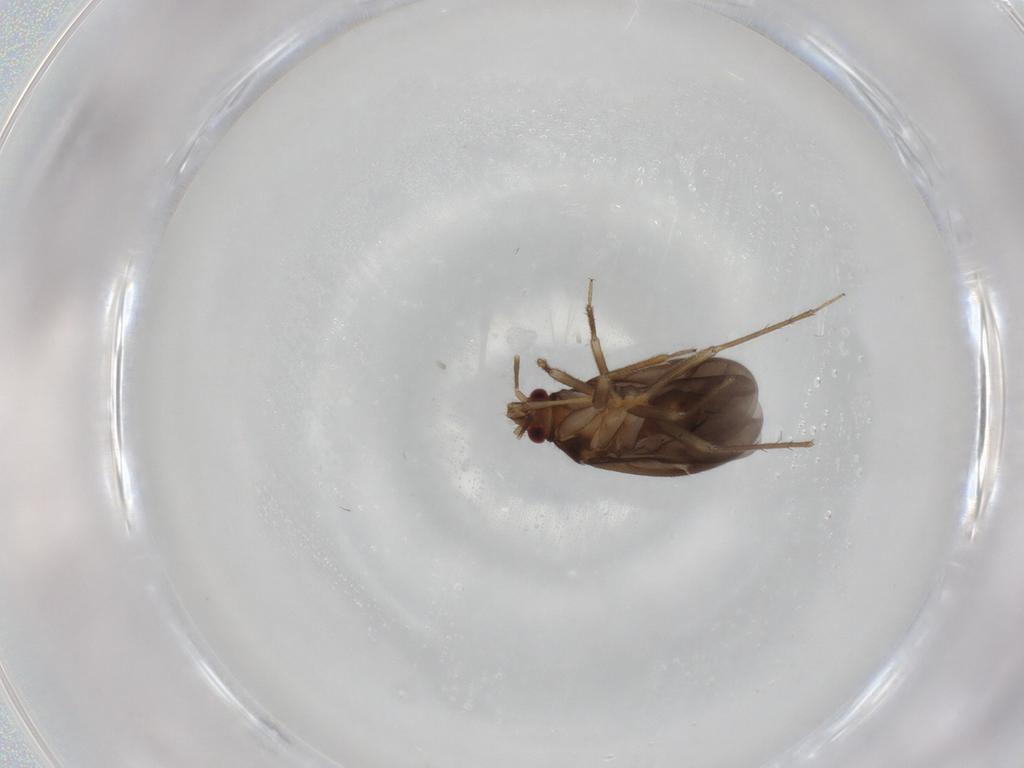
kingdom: Animalia
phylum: Arthropoda
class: Insecta
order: Hemiptera
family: Ceratocombidae
